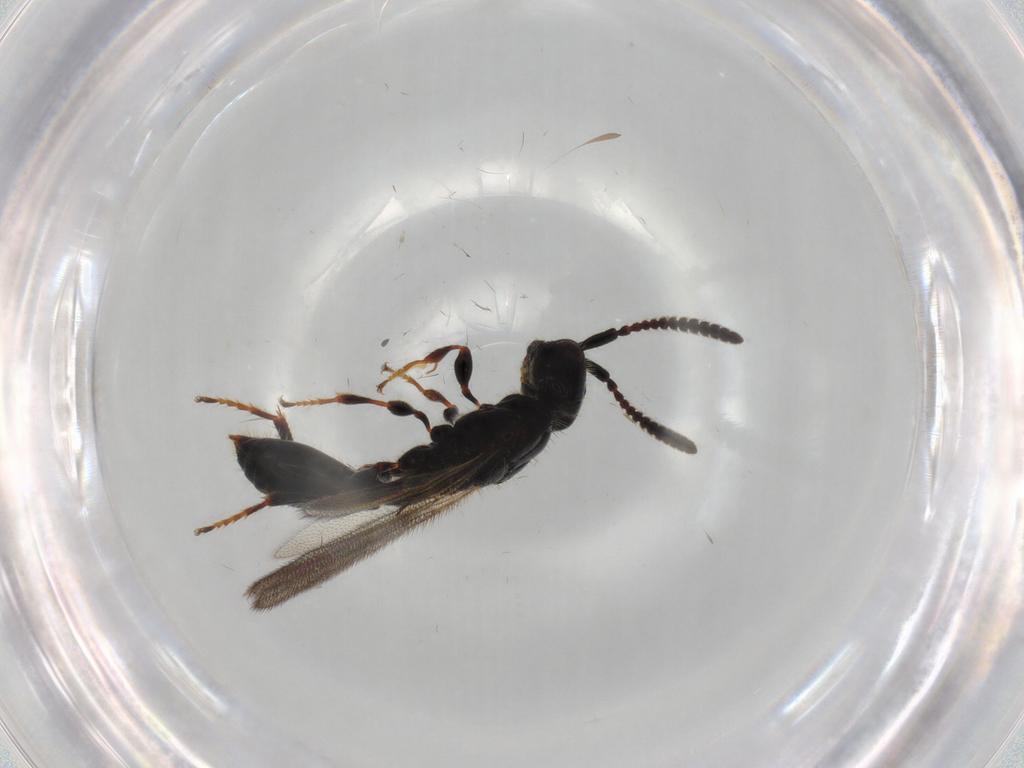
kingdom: Animalia
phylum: Arthropoda
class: Insecta
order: Hymenoptera
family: Diapriidae
